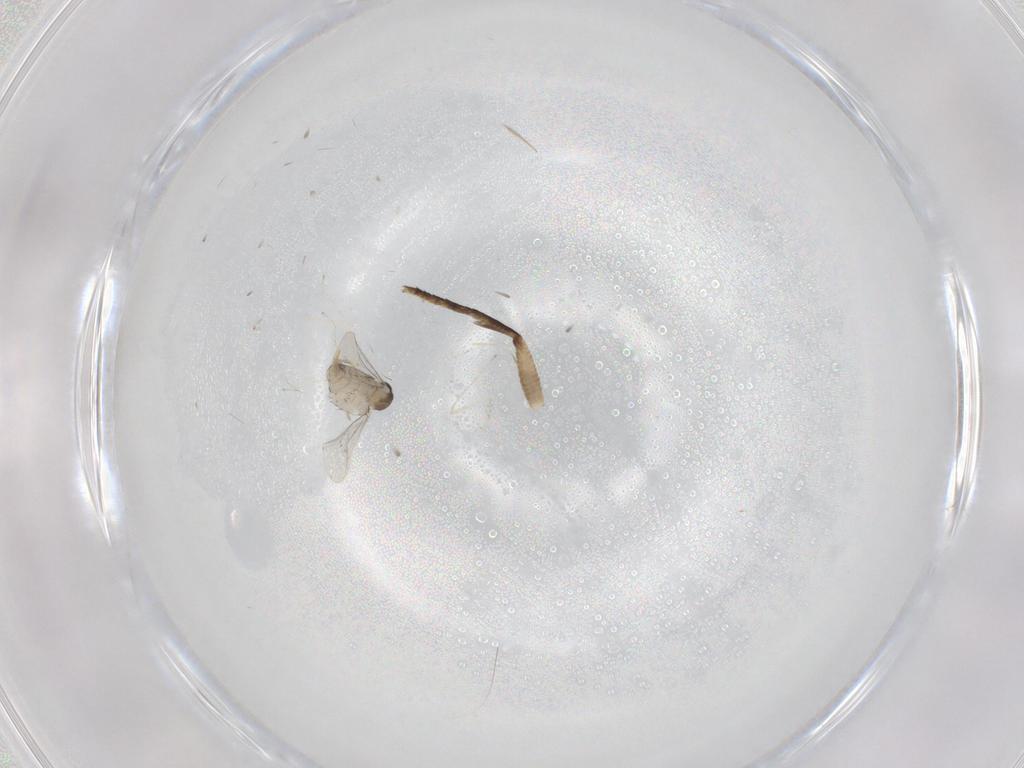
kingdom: Animalia
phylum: Arthropoda
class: Insecta
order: Diptera
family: Cecidomyiidae
